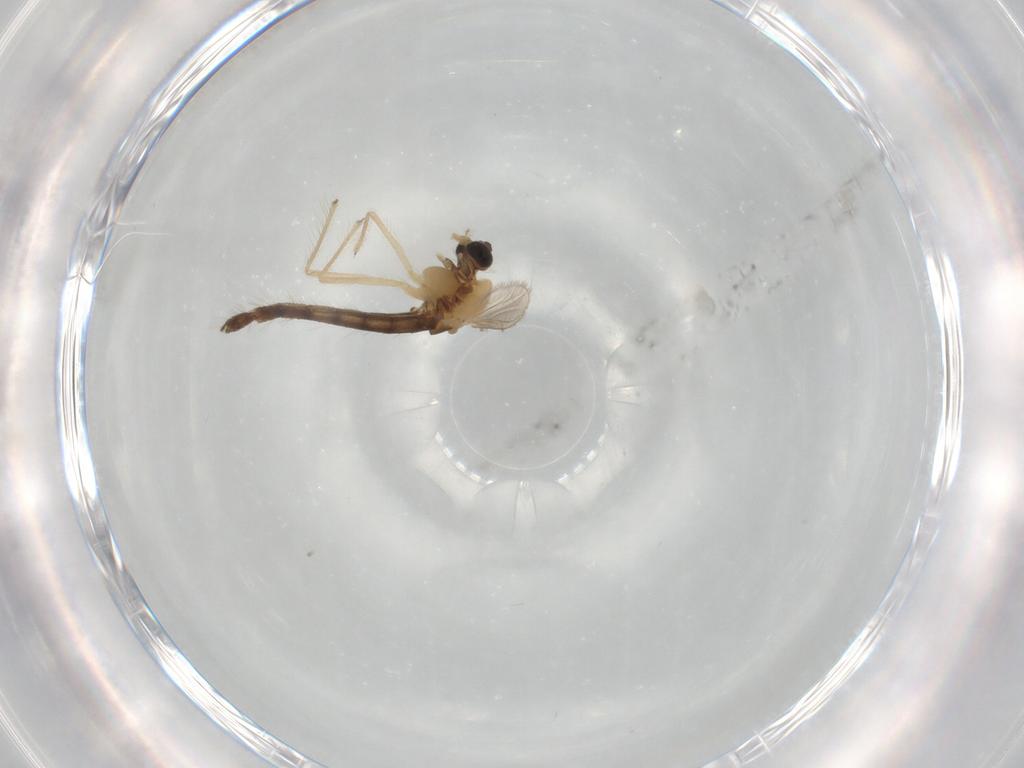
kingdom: Animalia
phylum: Arthropoda
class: Insecta
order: Diptera
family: Chironomidae
